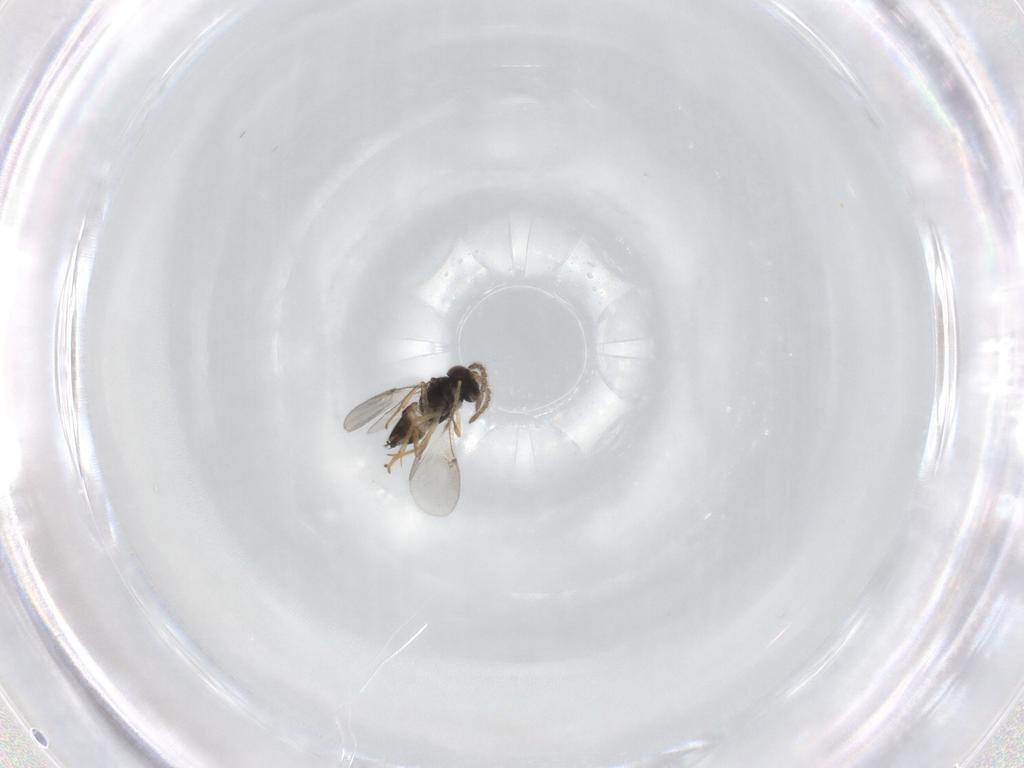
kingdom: Animalia
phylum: Arthropoda
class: Insecta
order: Hymenoptera
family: Encyrtidae
